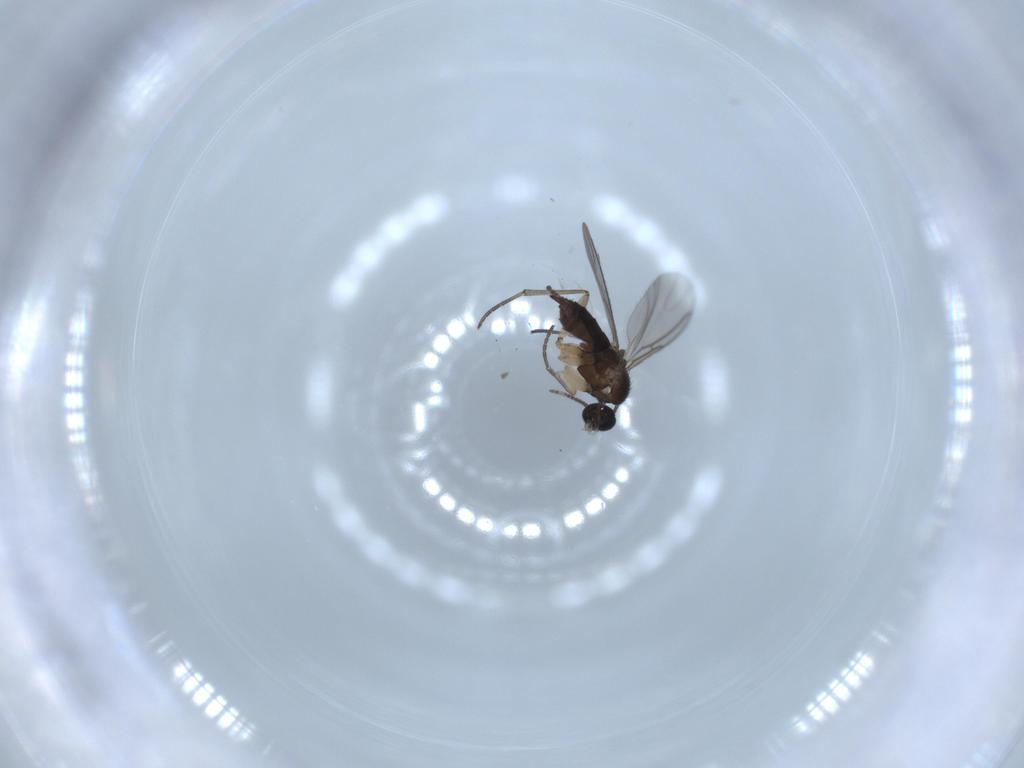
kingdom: Animalia
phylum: Arthropoda
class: Insecta
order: Diptera
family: Sciaridae
